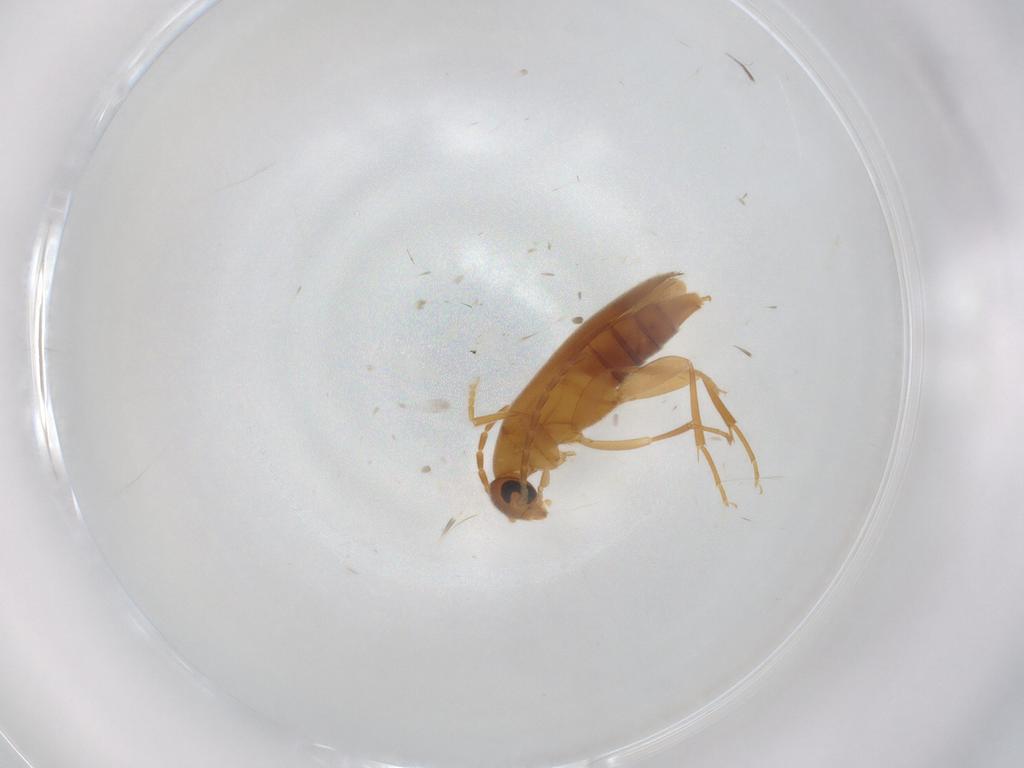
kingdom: Animalia
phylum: Arthropoda
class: Insecta
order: Coleoptera
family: Scraptiidae
